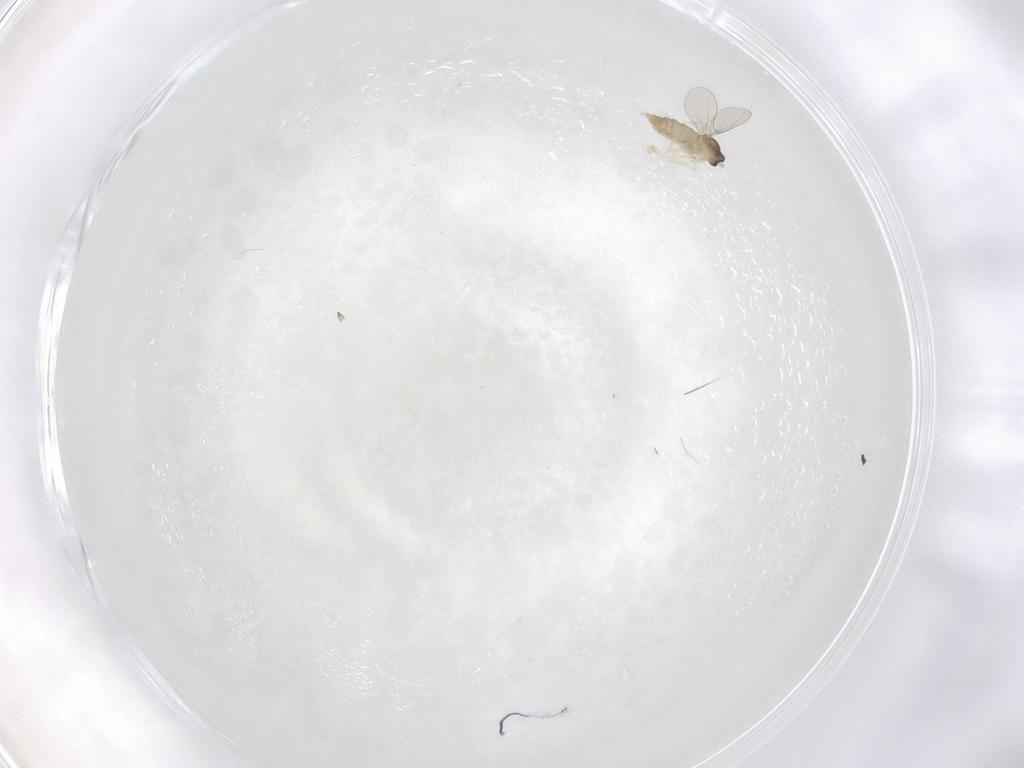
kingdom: Animalia
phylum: Arthropoda
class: Insecta
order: Diptera
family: Cecidomyiidae
